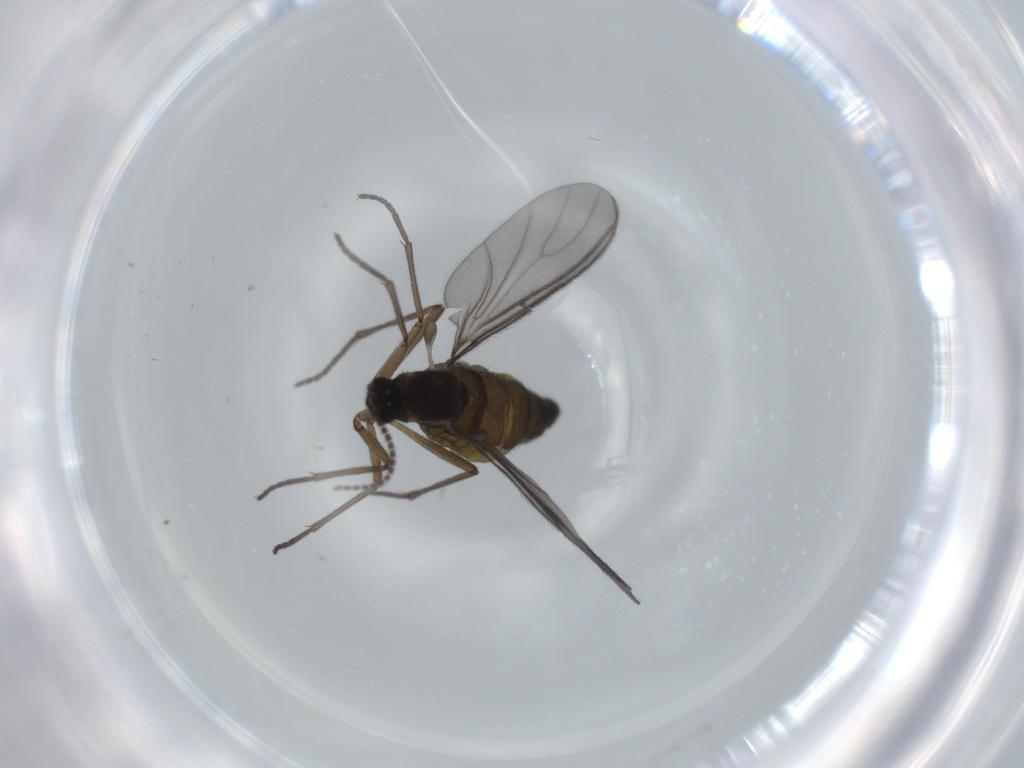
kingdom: Animalia
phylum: Arthropoda
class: Insecta
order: Diptera
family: Sciaridae
